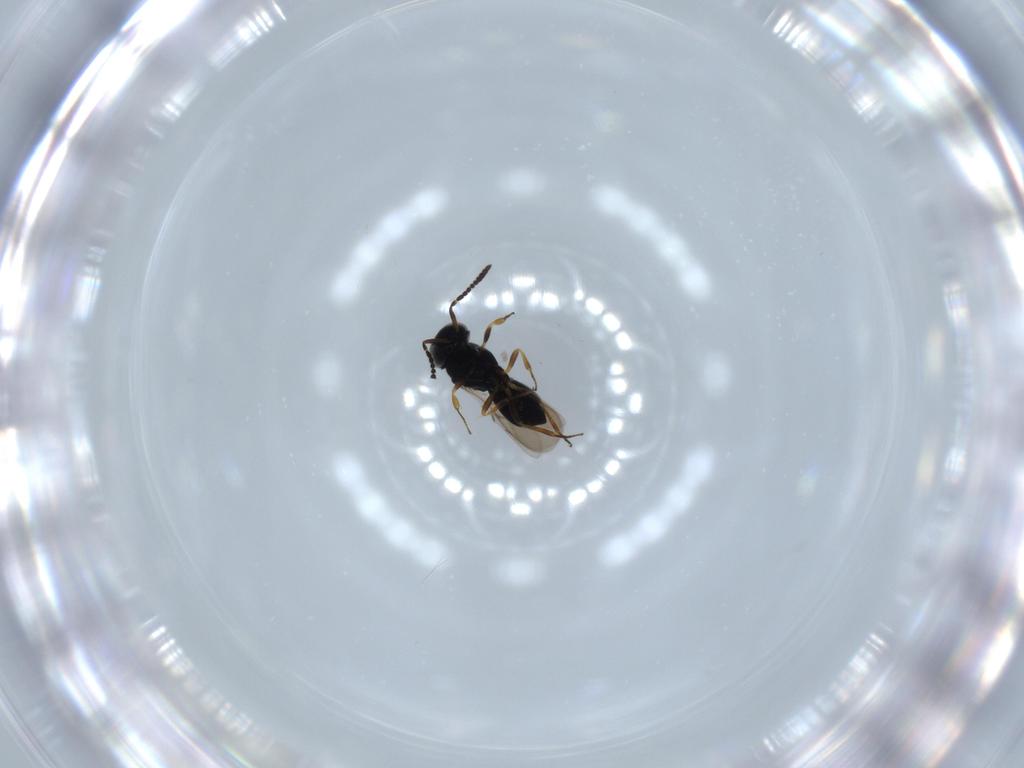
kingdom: Animalia
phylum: Arthropoda
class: Insecta
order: Hymenoptera
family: Scelionidae
